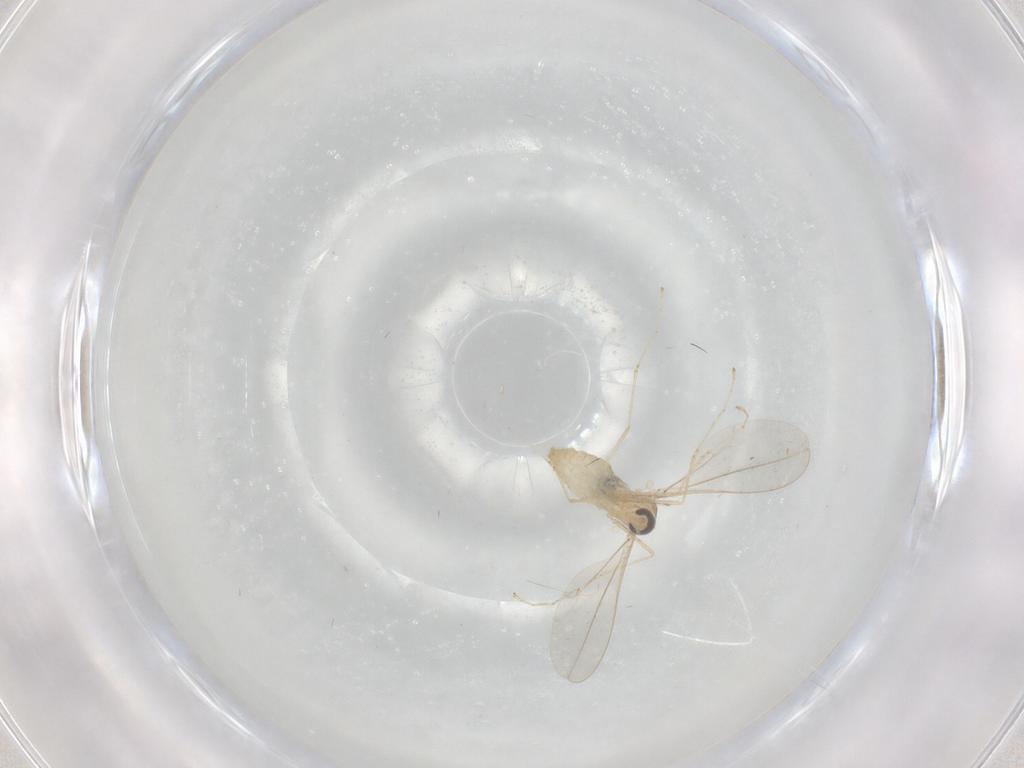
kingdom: Animalia
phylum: Arthropoda
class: Insecta
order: Diptera
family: Cecidomyiidae
